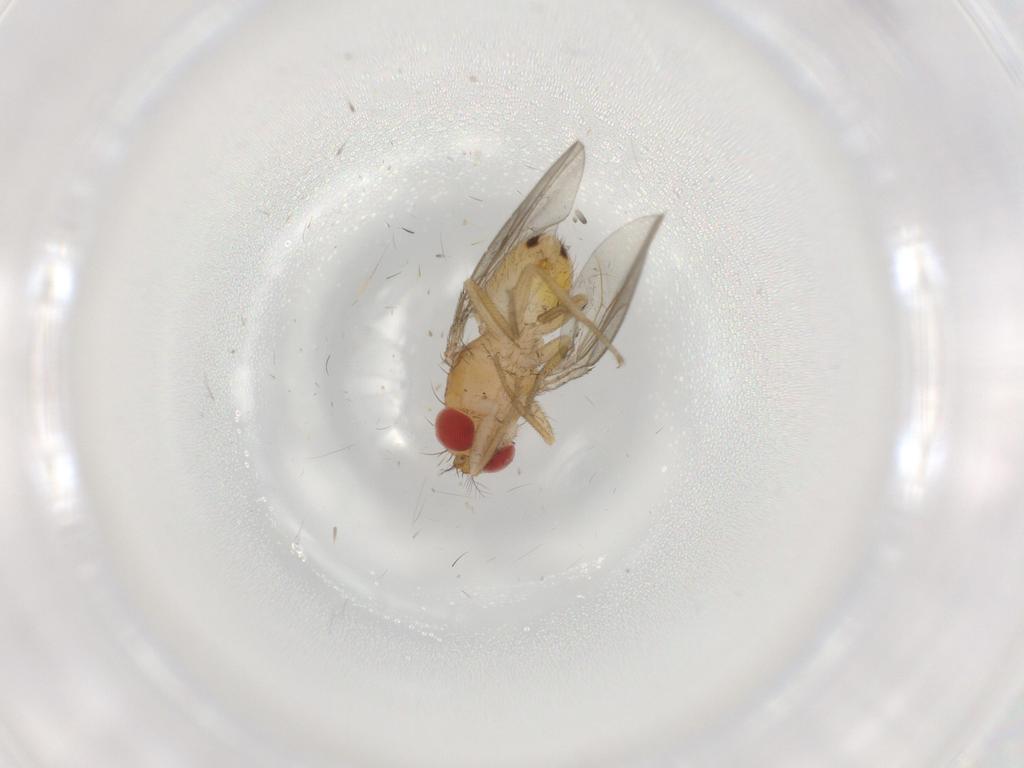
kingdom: Animalia
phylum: Arthropoda
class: Insecta
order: Diptera
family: Drosophilidae
